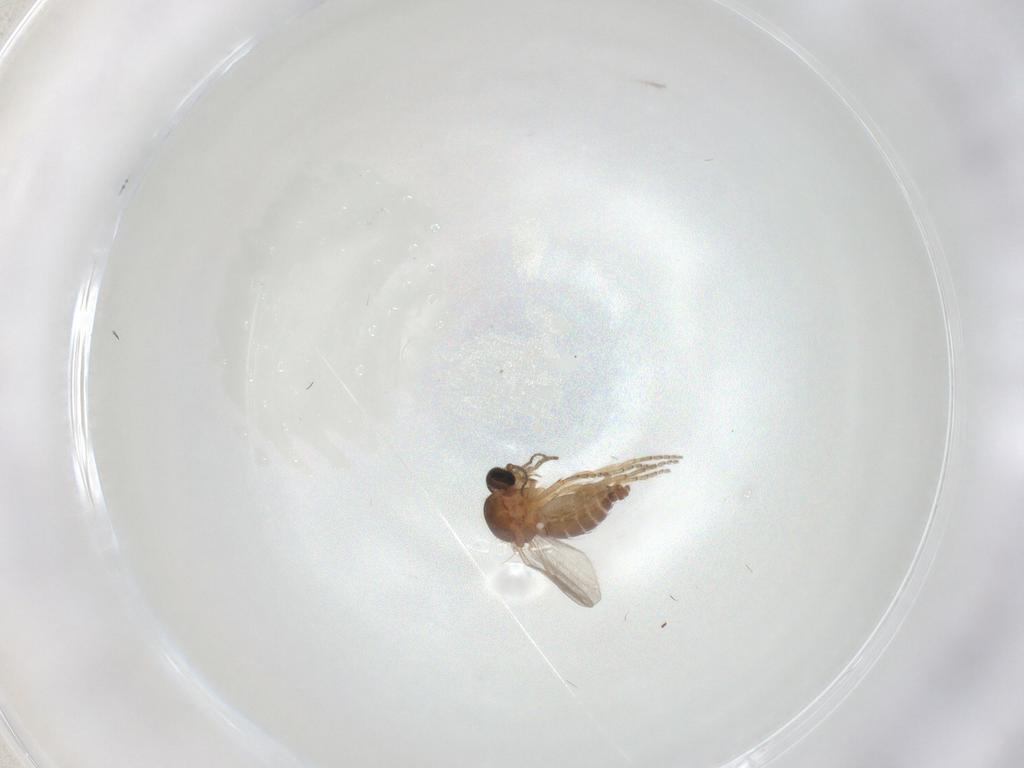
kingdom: Animalia
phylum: Arthropoda
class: Insecta
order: Diptera
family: Ceratopogonidae
